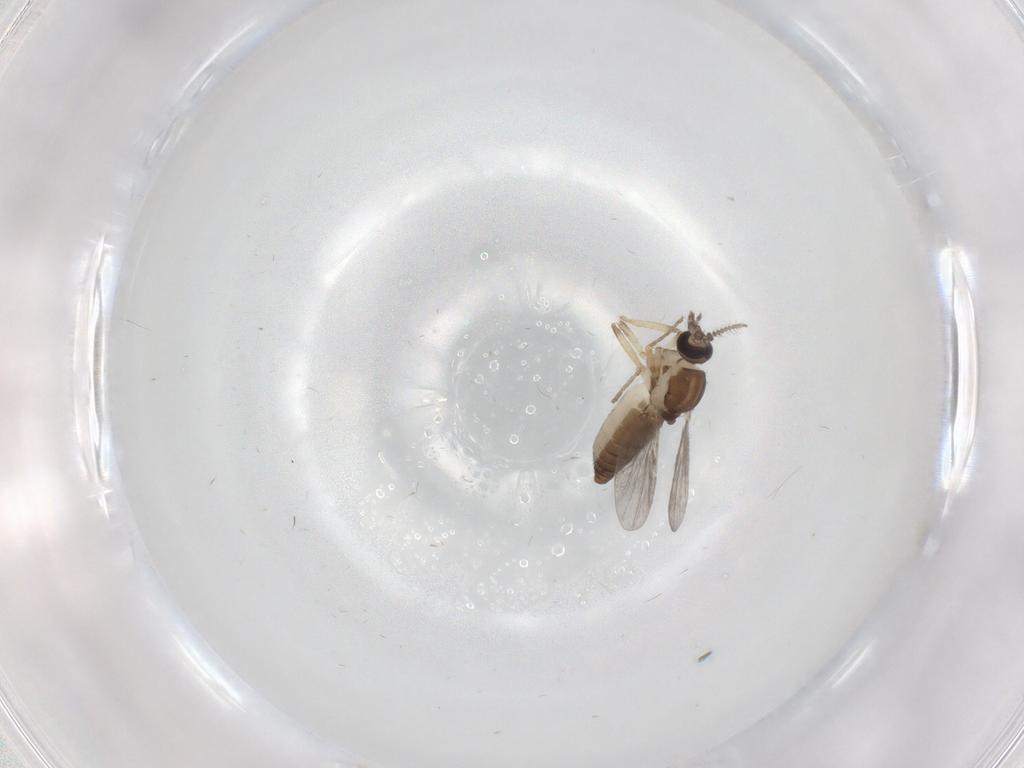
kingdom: Animalia
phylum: Arthropoda
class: Insecta
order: Diptera
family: Ceratopogonidae
